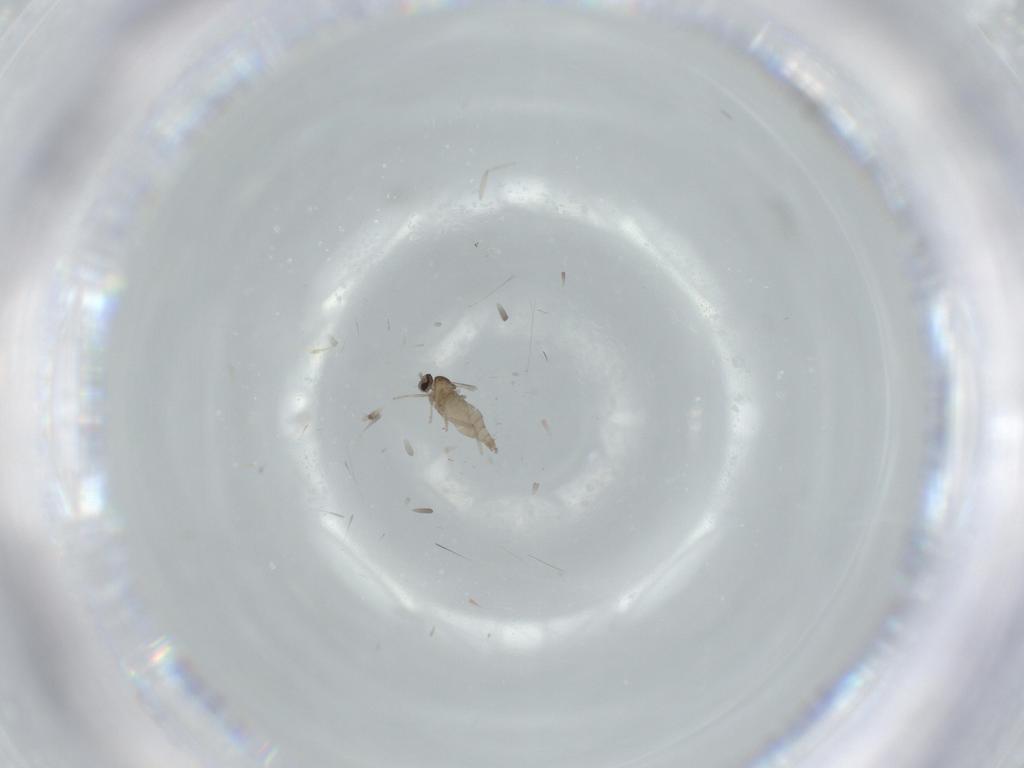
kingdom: Animalia
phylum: Arthropoda
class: Insecta
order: Diptera
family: Cecidomyiidae
